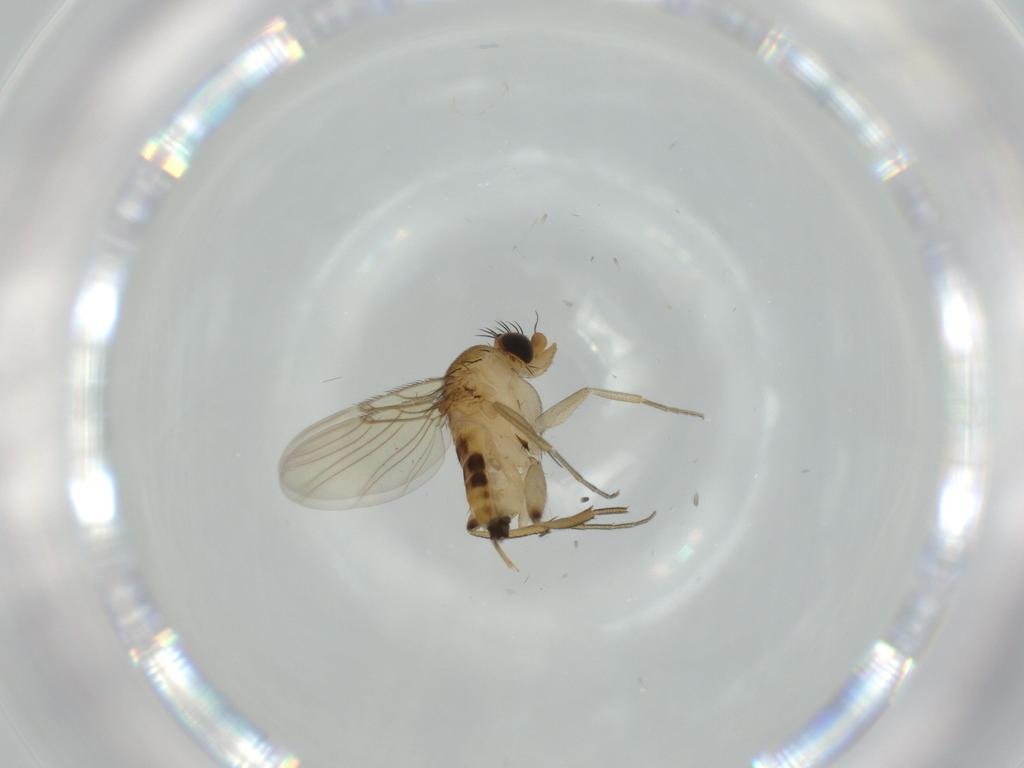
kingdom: Animalia
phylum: Arthropoda
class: Insecta
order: Diptera
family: Phoridae
